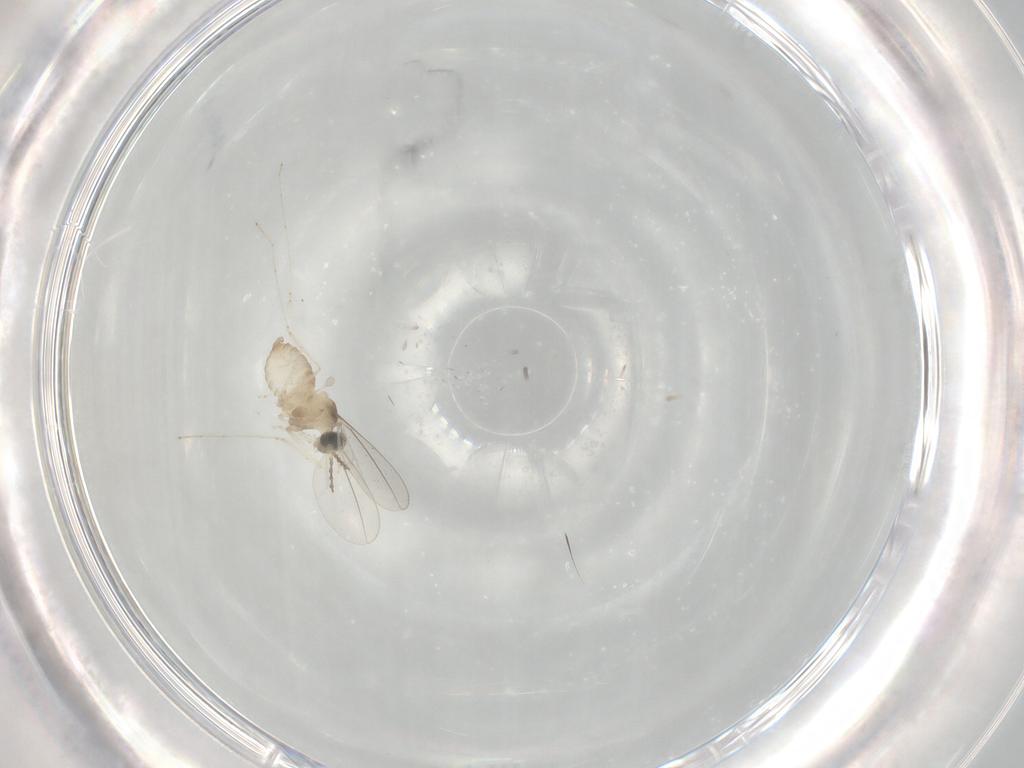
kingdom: Animalia
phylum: Arthropoda
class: Insecta
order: Diptera
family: Cecidomyiidae
